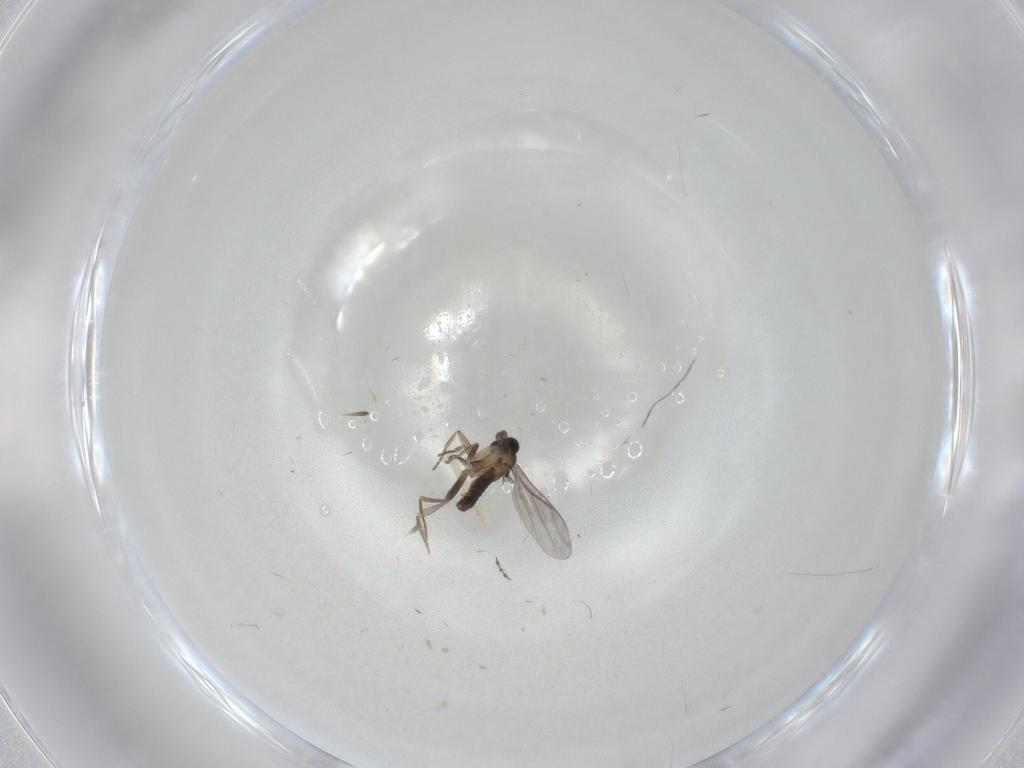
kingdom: Animalia
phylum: Arthropoda
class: Insecta
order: Diptera
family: Cecidomyiidae
